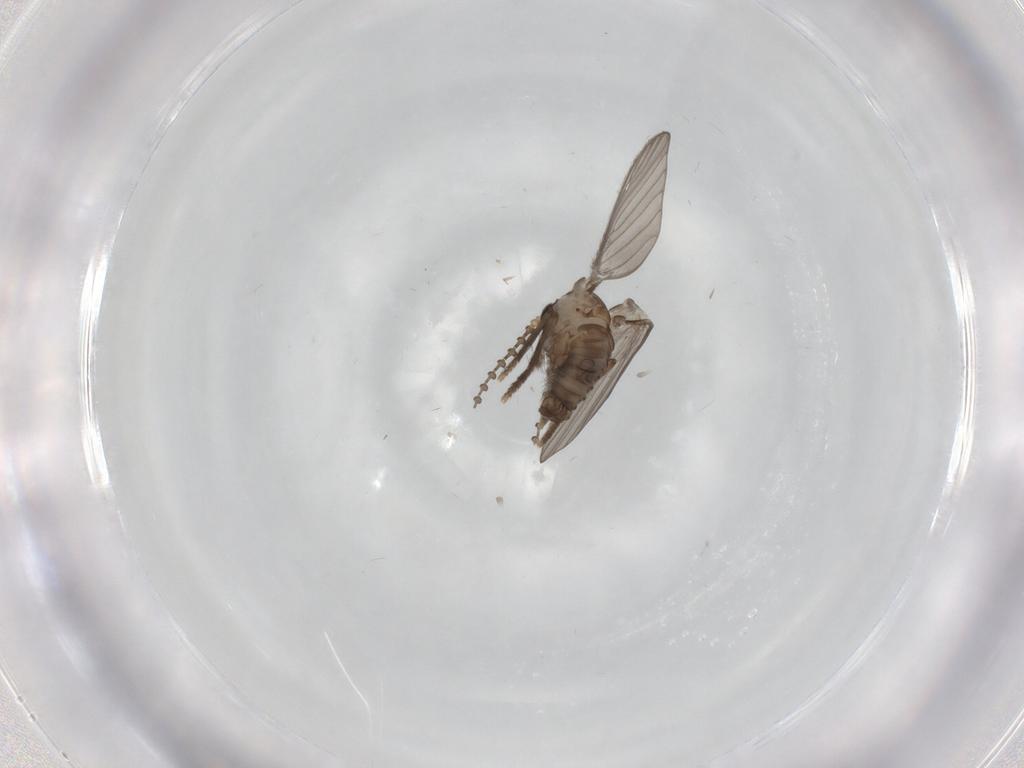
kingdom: Animalia
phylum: Arthropoda
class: Insecta
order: Diptera
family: Psychodidae
